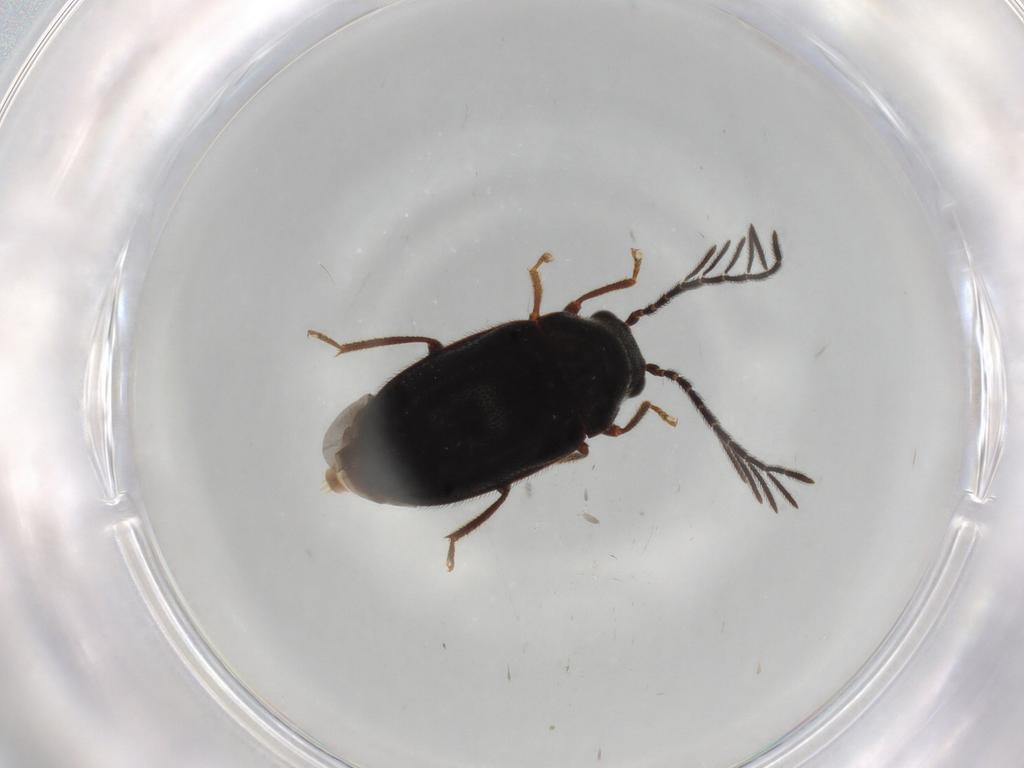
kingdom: Animalia
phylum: Arthropoda
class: Insecta
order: Coleoptera
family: Ptilodactylidae
